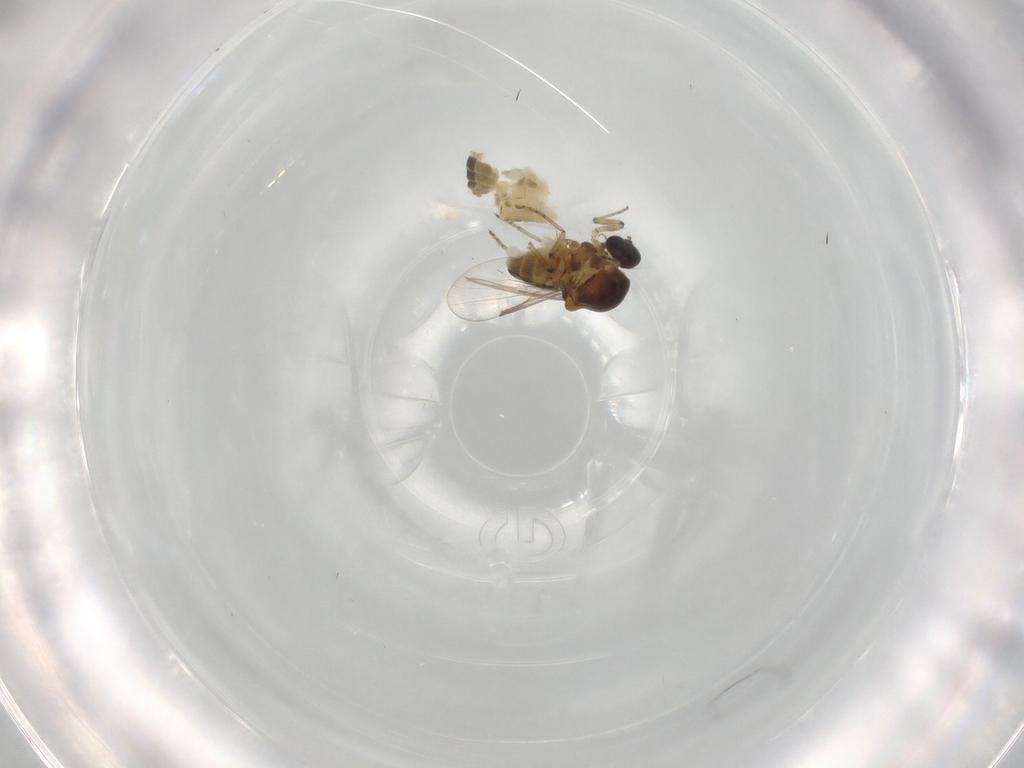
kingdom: Animalia
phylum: Arthropoda
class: Insecta
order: Diptera
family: Ceratopogonidae
